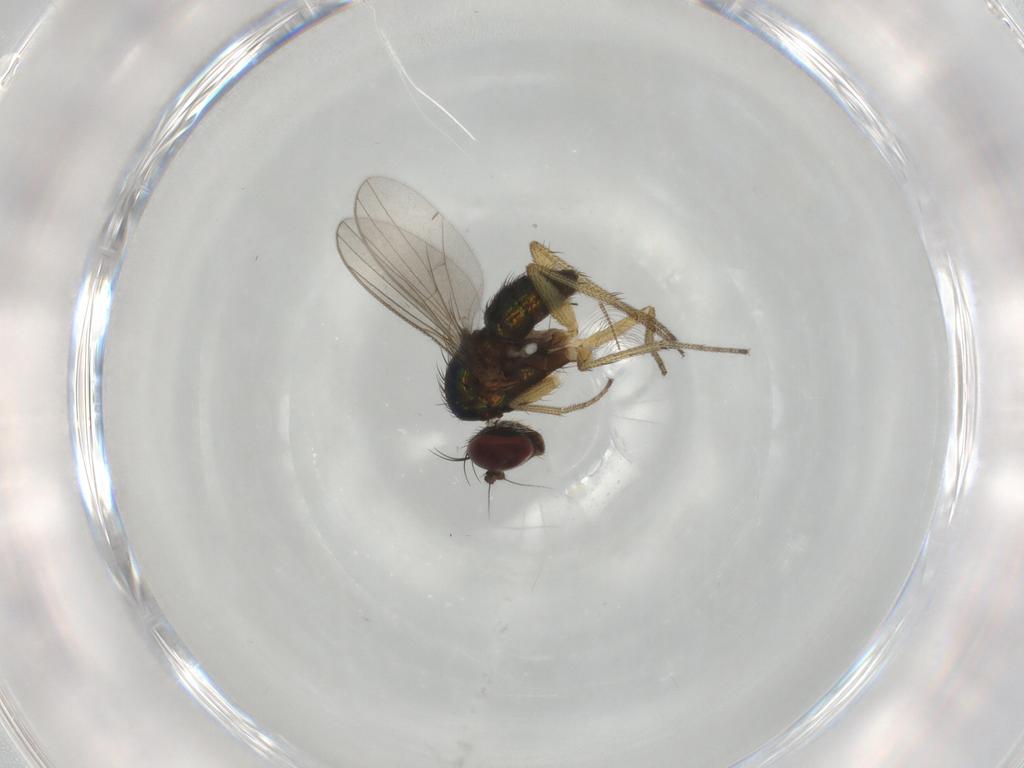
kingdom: Animalia
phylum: Arthropoda
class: Insecta
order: Diptera
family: Dolichopodidae
